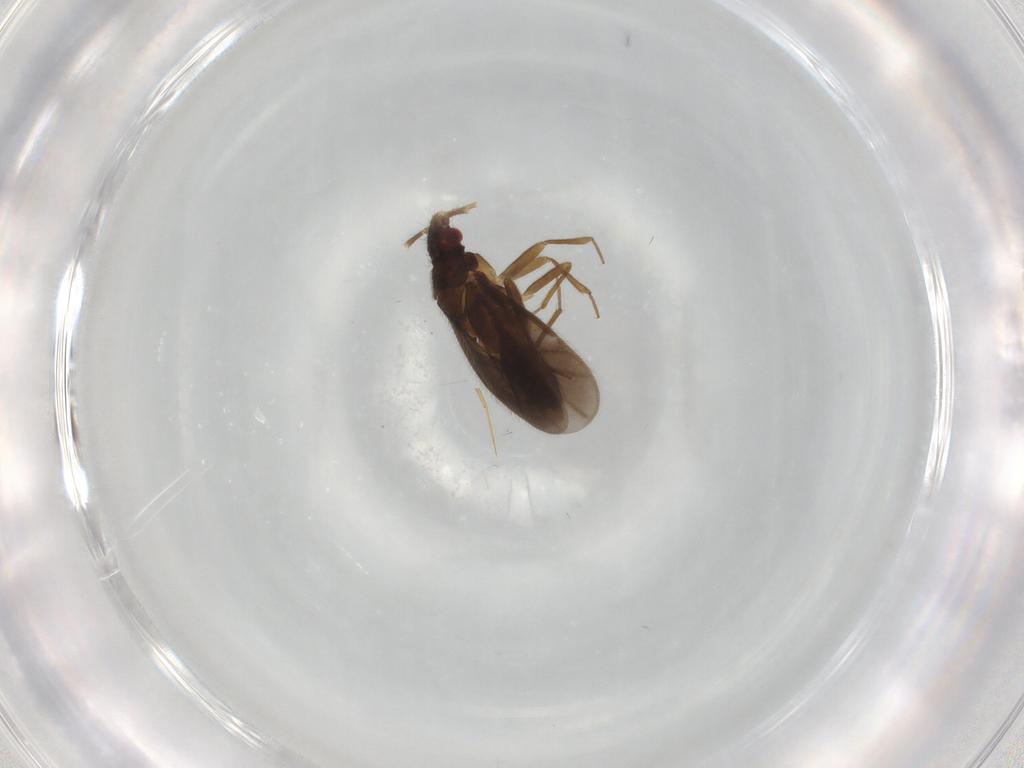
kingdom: Animalia
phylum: Arthropoda
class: Insecta
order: Hemiptera
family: Ceratocombidae
